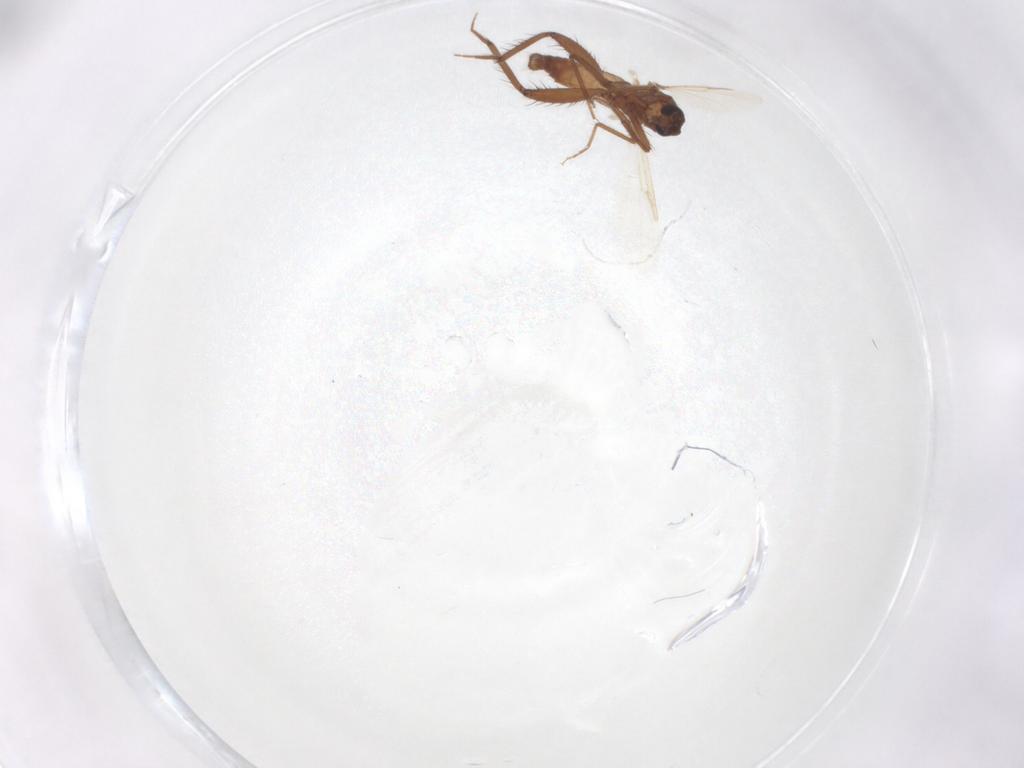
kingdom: Animalia
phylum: Arthropoda
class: Insecta
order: Diptera
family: Ceratopogonidae
